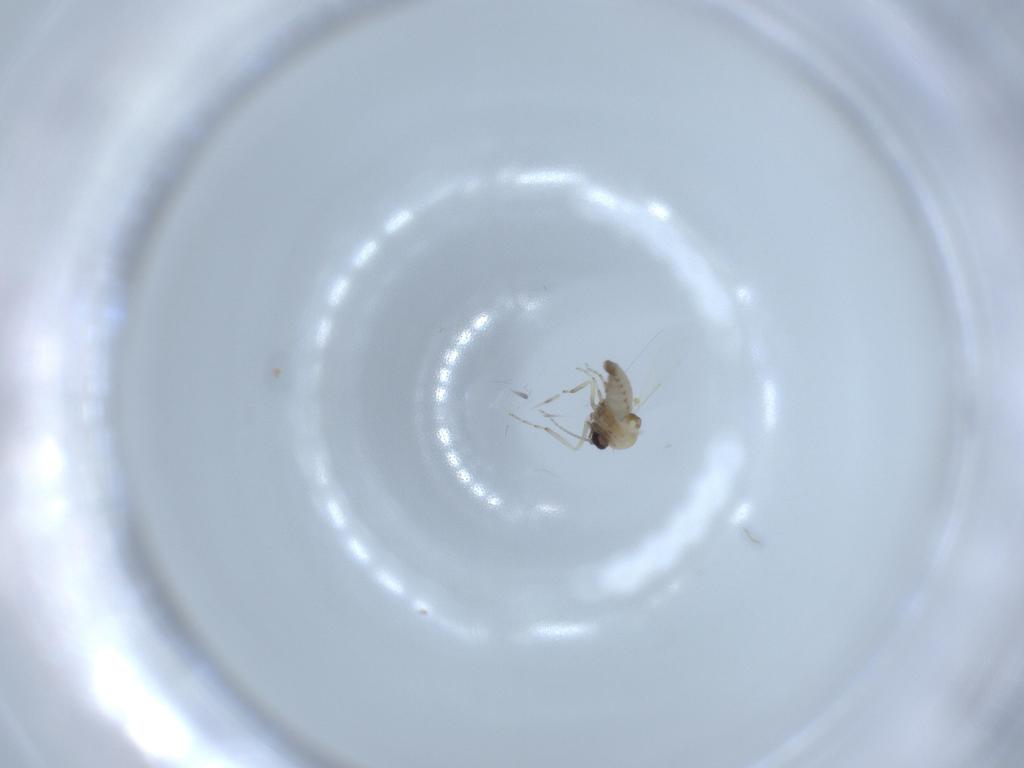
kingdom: Animalia
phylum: Arthropoda
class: Insecta
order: Diptera
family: Ceratopogonidae
